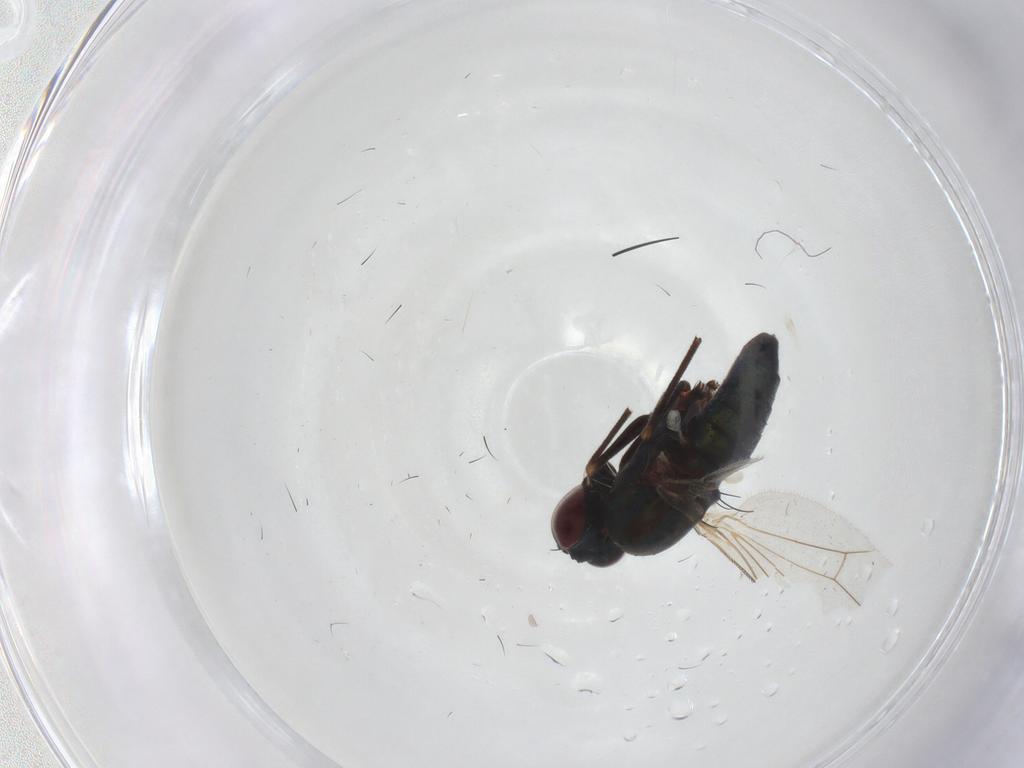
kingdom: Animalia
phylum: Arthropoda
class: Insecta
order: Diptera
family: Dolichopodidae
